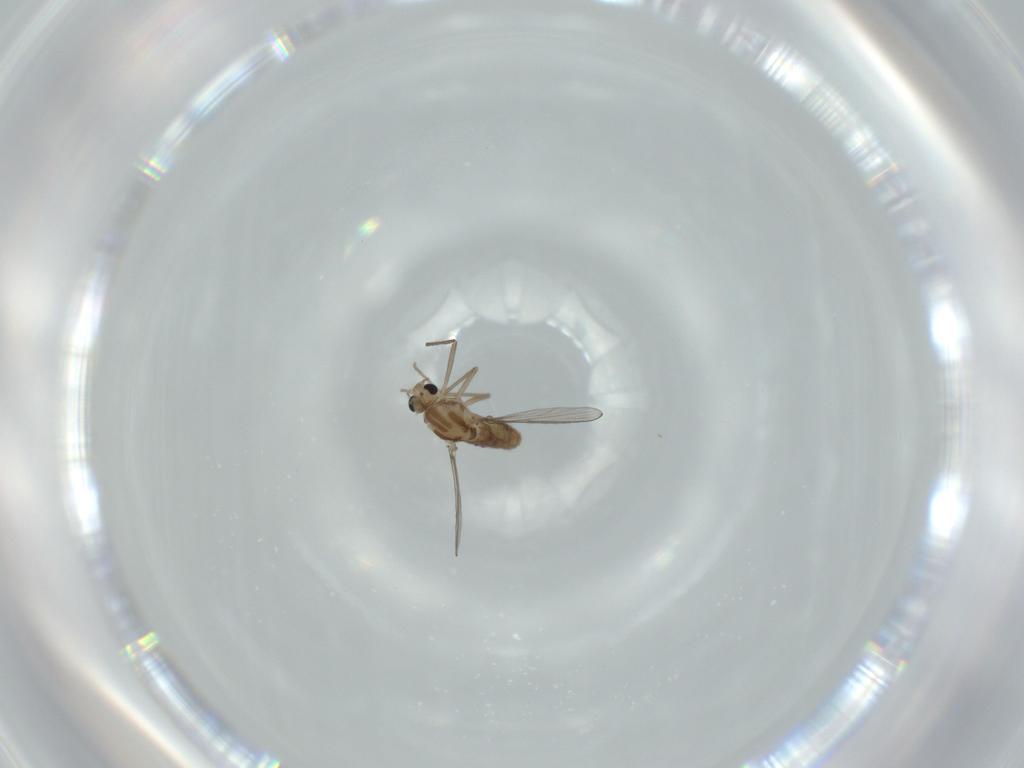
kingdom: Animalia
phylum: Arthropoda
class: Insecta
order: Diptera
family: Chironomidae
